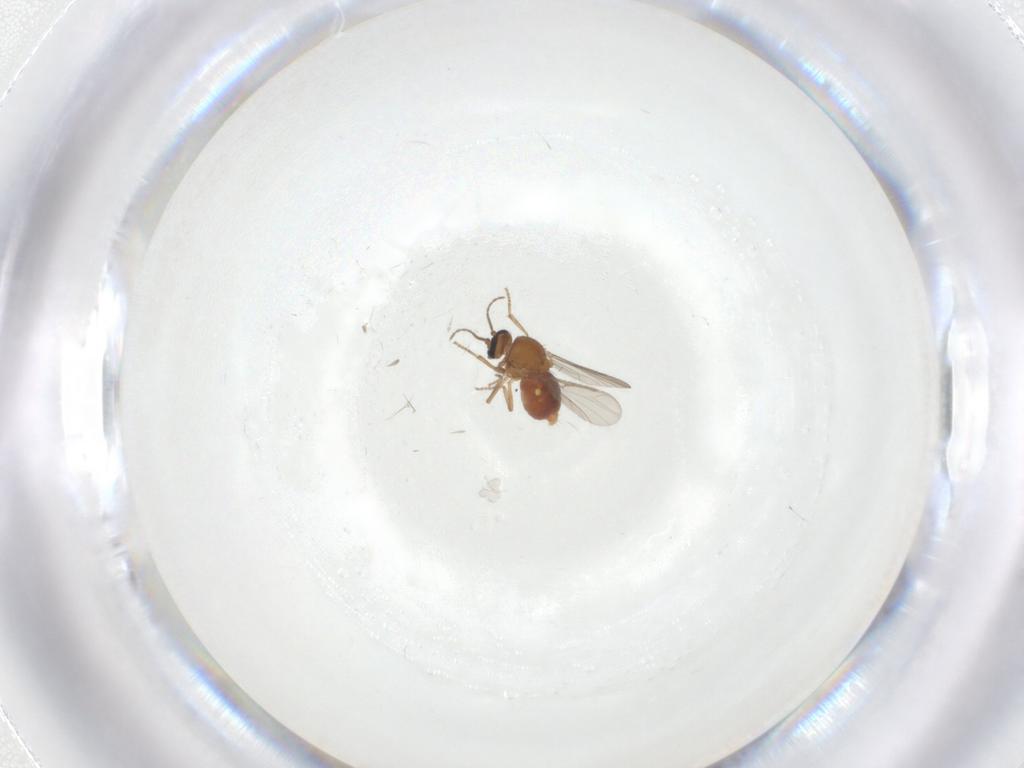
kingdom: Animalia
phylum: Arthropoda
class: Insecta
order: Diptera
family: Ceratopogonidae
